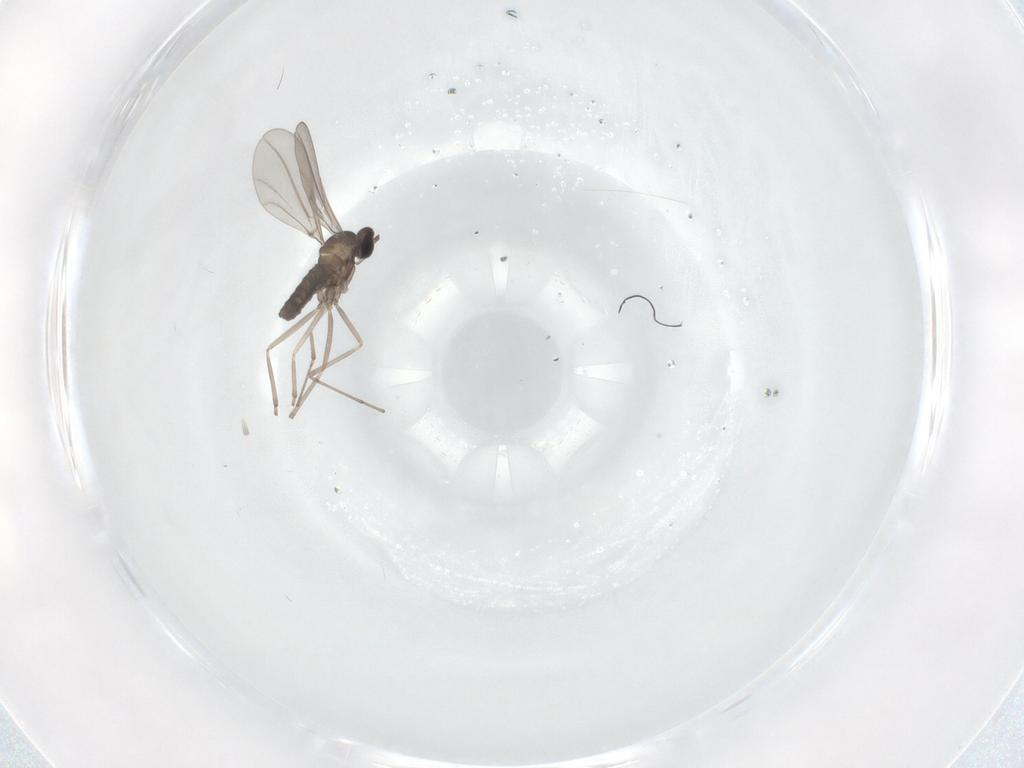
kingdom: Animalia
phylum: Arthropoda
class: Insecta
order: Diptera
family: Cecidomyiidae
